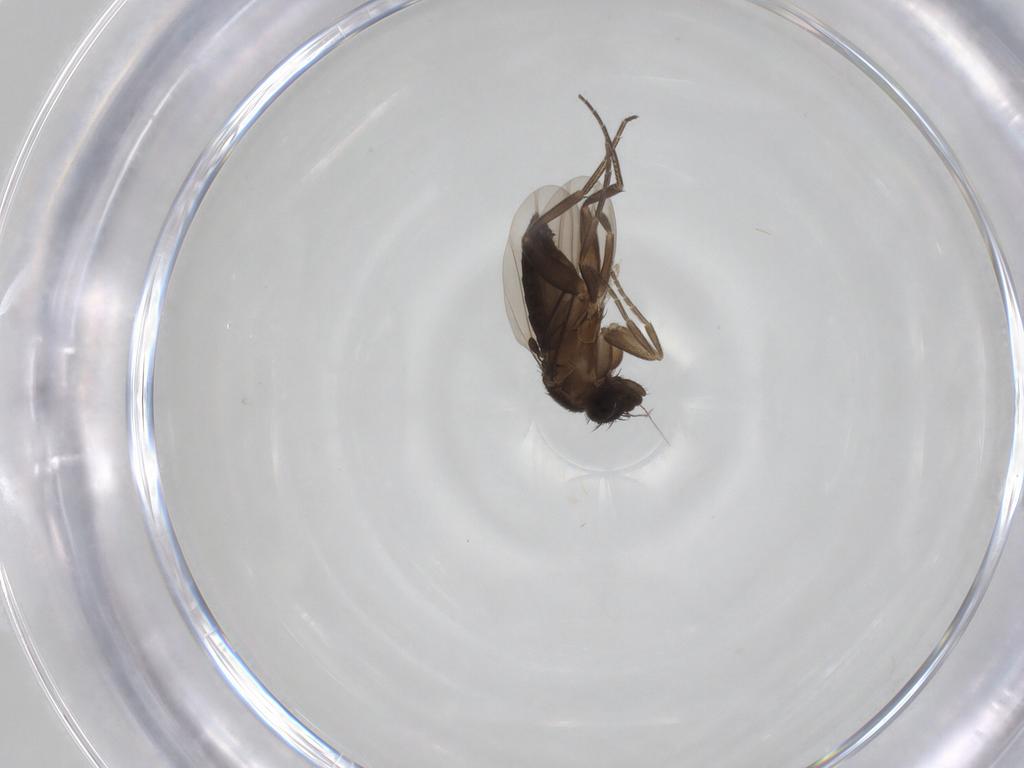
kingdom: Animalia
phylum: Arthropoda
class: Insecta
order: Diptera
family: Phoridae
